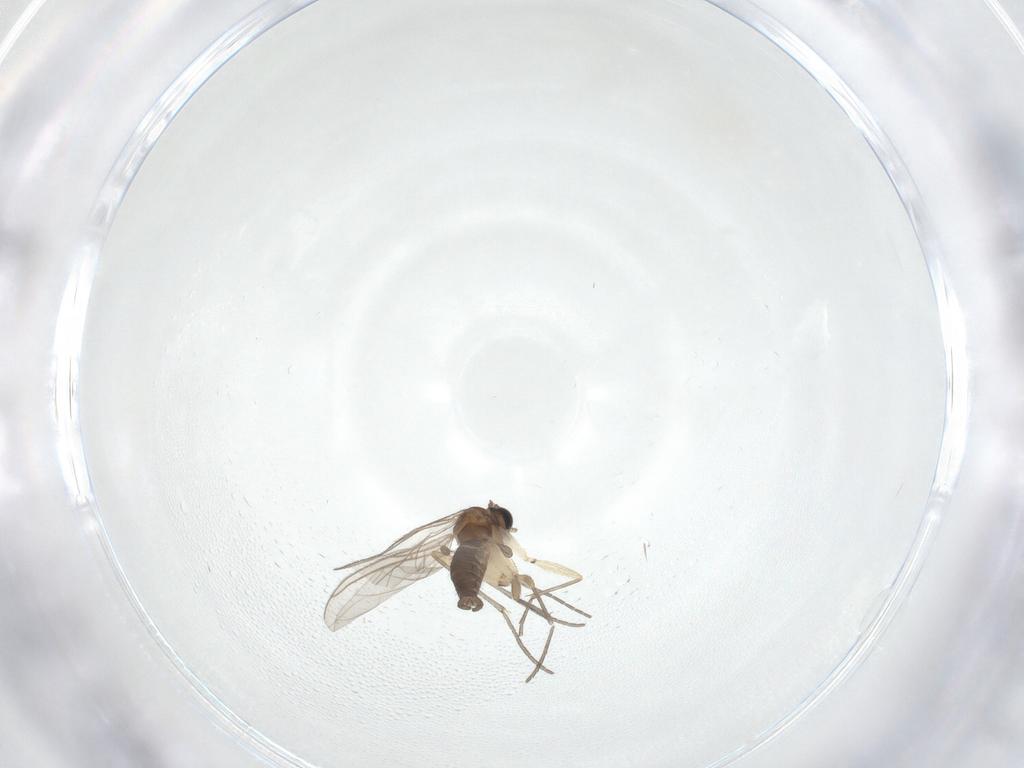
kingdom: Animalia
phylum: Arthropoda
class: Insecta
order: Diptera
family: Sciaridae
